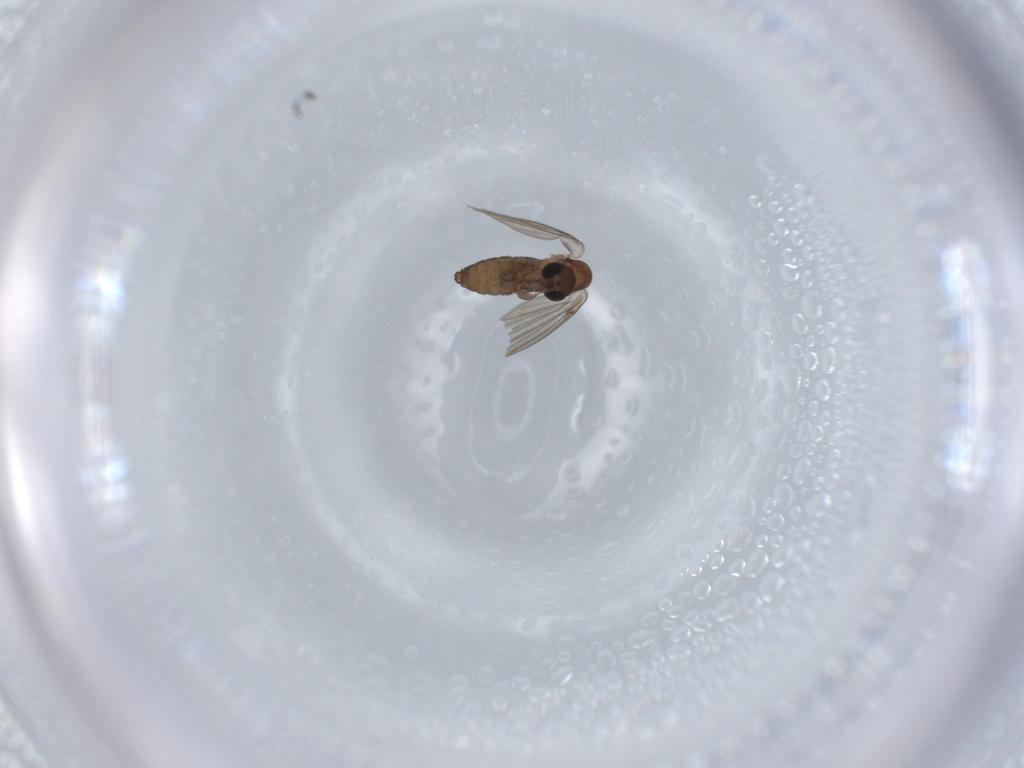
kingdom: Animalia
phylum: Arthropoda
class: Insecta
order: Diptera
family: Psychodidae
